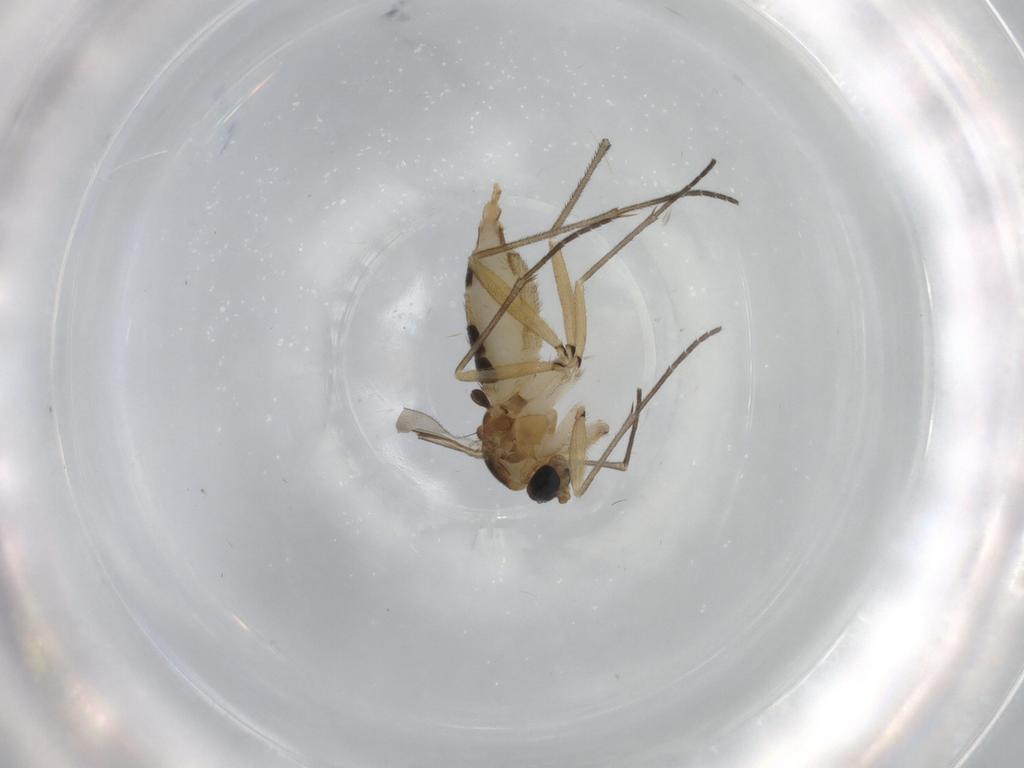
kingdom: Animalia
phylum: Arthropoda
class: Insecta
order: Diptera
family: Sciaridae
